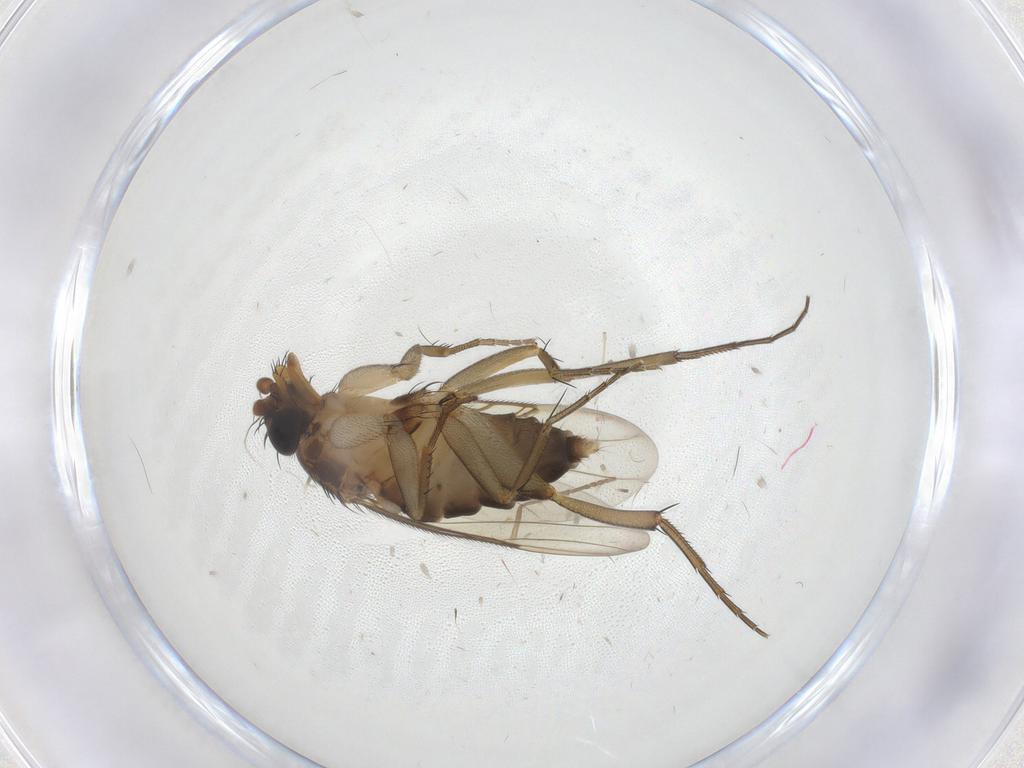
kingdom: Animalia
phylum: Arthropoda
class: Insecta
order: Diptera
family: Phoridae
